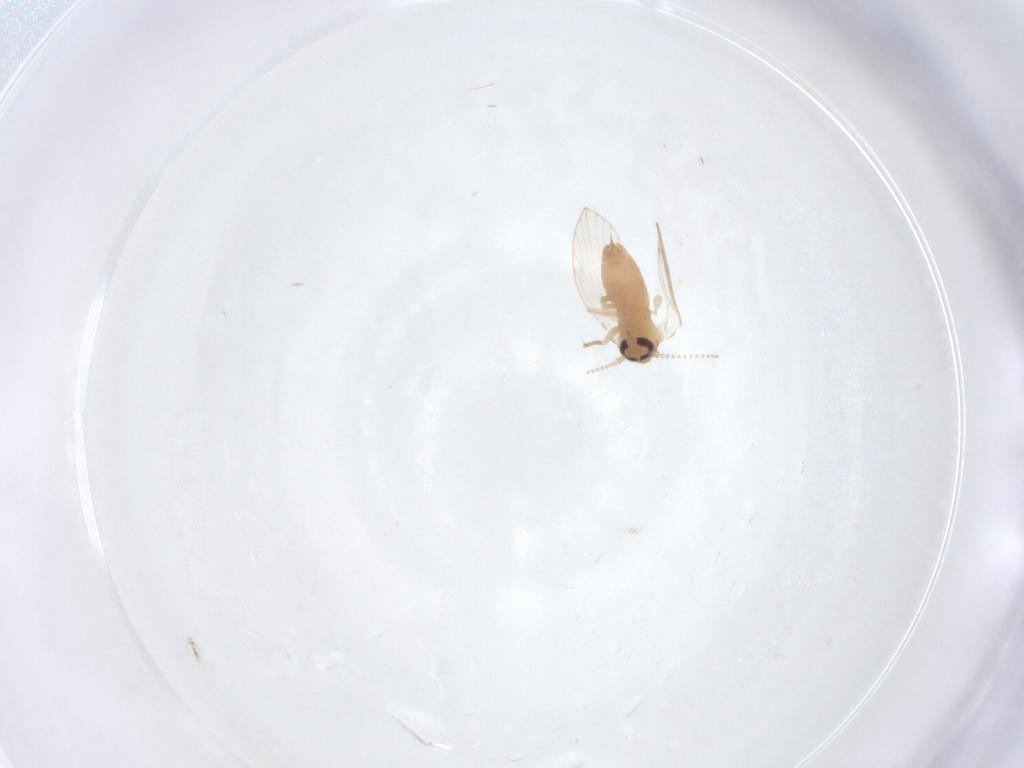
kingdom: Animalia
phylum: Arthropoda
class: Insecta
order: Diptera
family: Psychodidae
